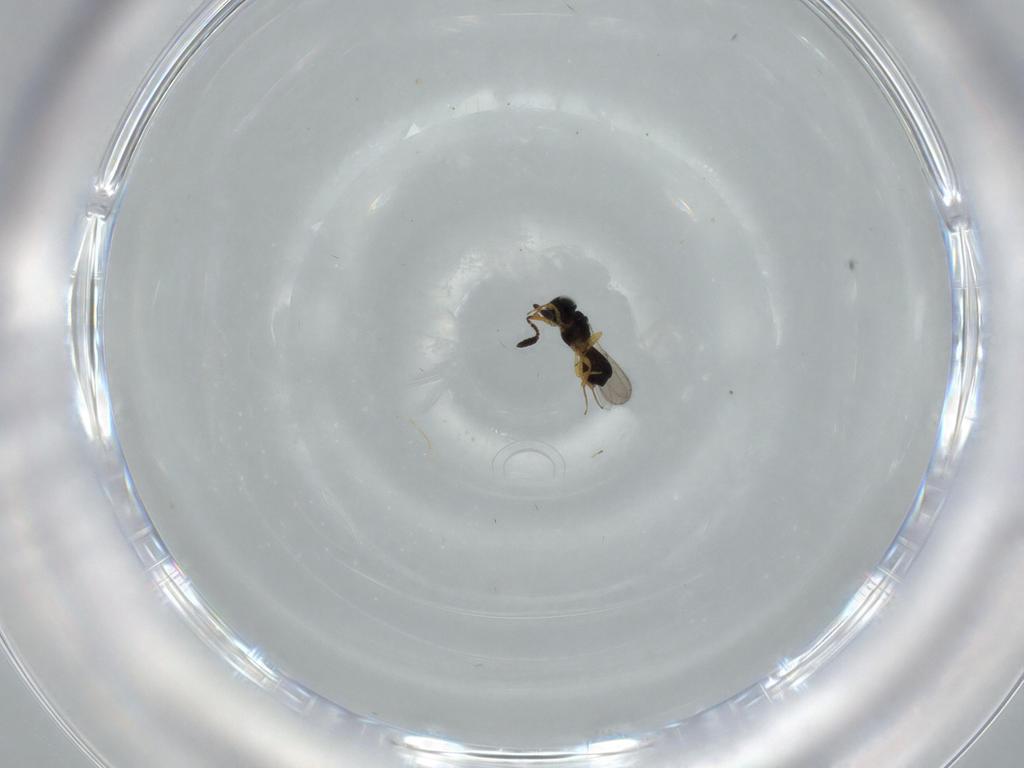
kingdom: Animalia
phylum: Arthropoda
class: Insecta
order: Hymenoptera
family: Scelionidae
